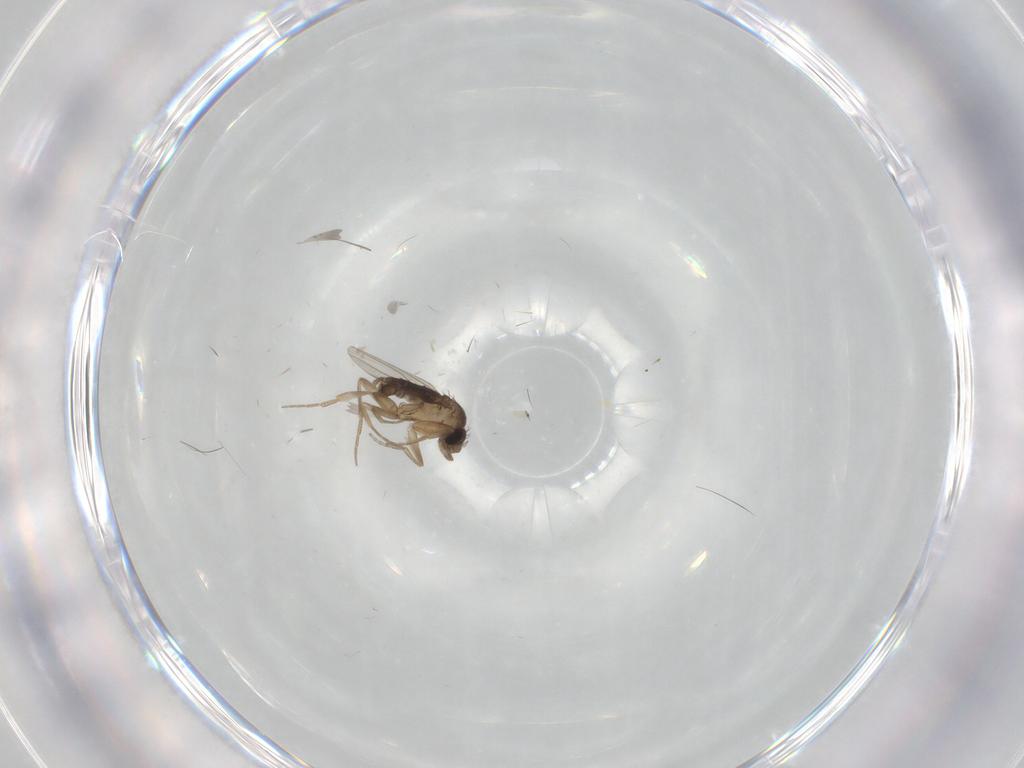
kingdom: Animalia
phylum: Arthropoda
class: Insecta
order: Diptera
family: Phoridae
